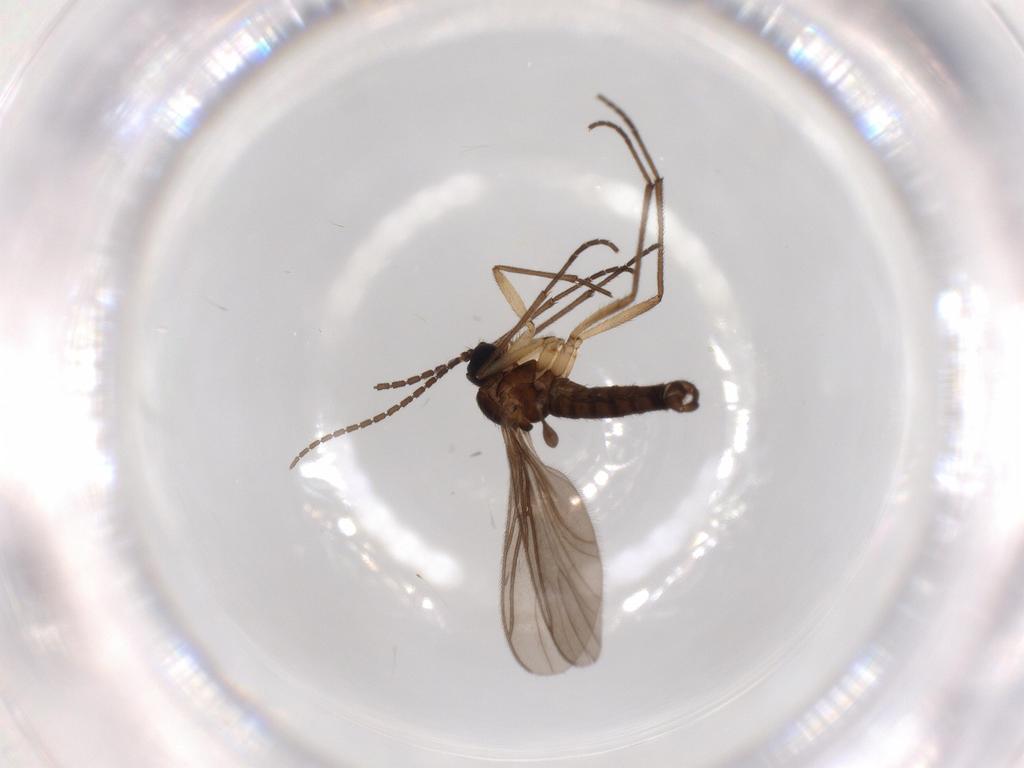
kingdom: Animalia
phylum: Arthropoda
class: Insecta
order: Diptera
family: Sciaridae
